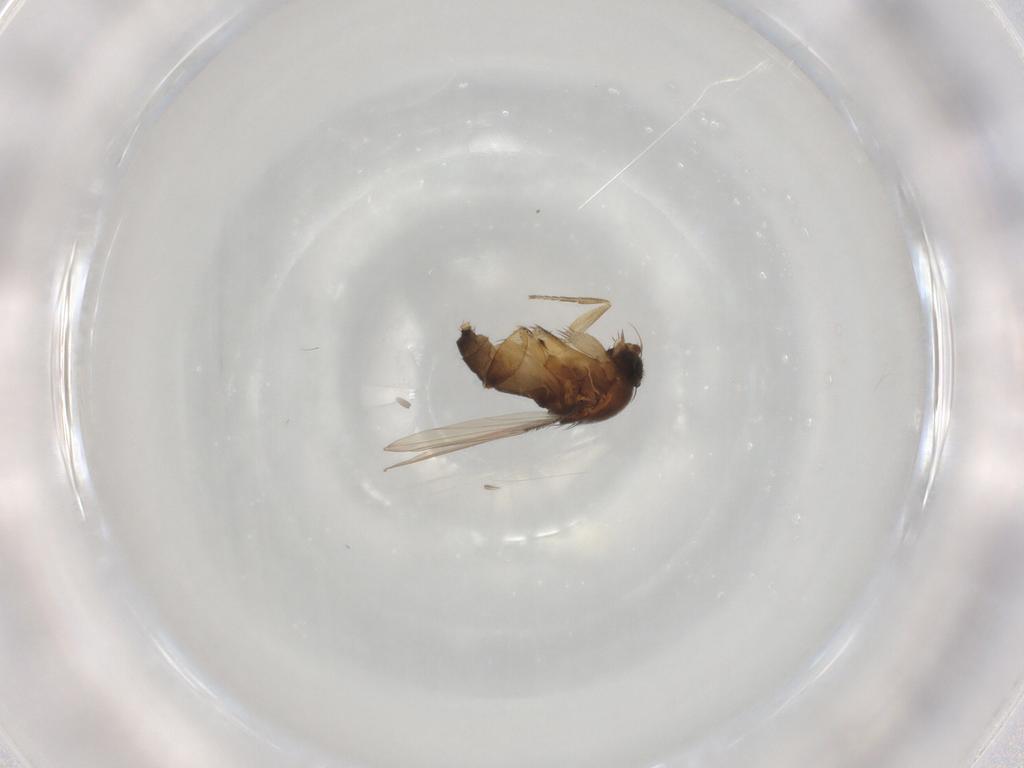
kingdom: Animalia
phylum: Arthropoda
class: Insecta
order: Diptera
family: Phoridae
